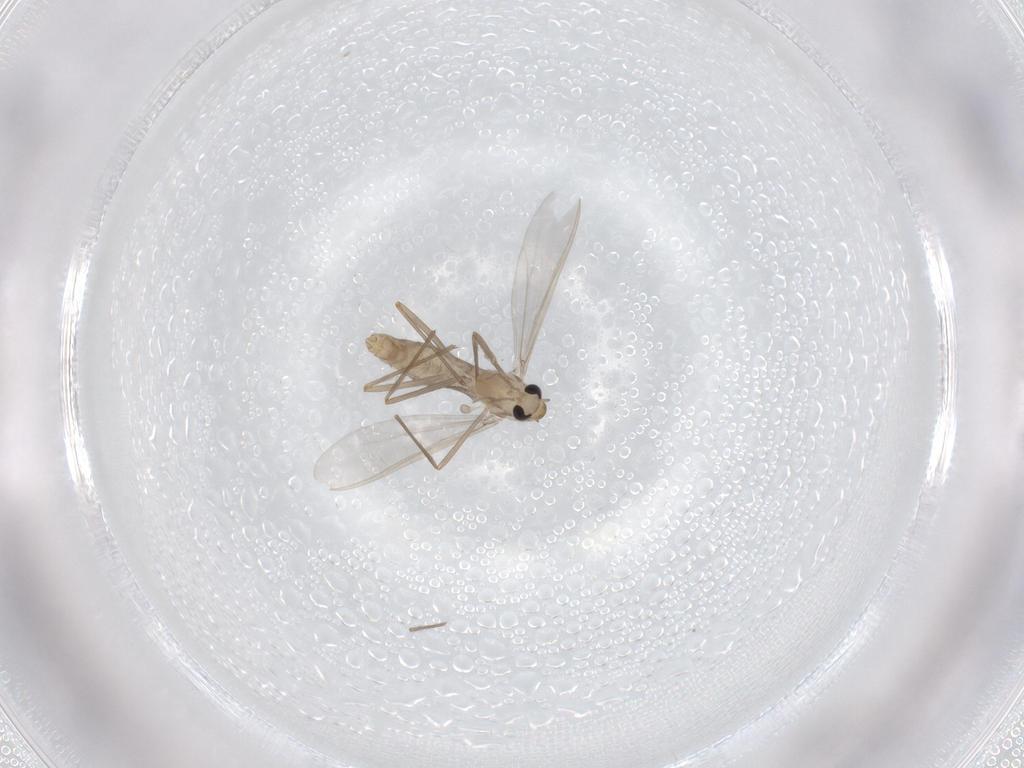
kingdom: Animalia
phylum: Arthropoda
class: Insecta
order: Diptera
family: Chironomidae
